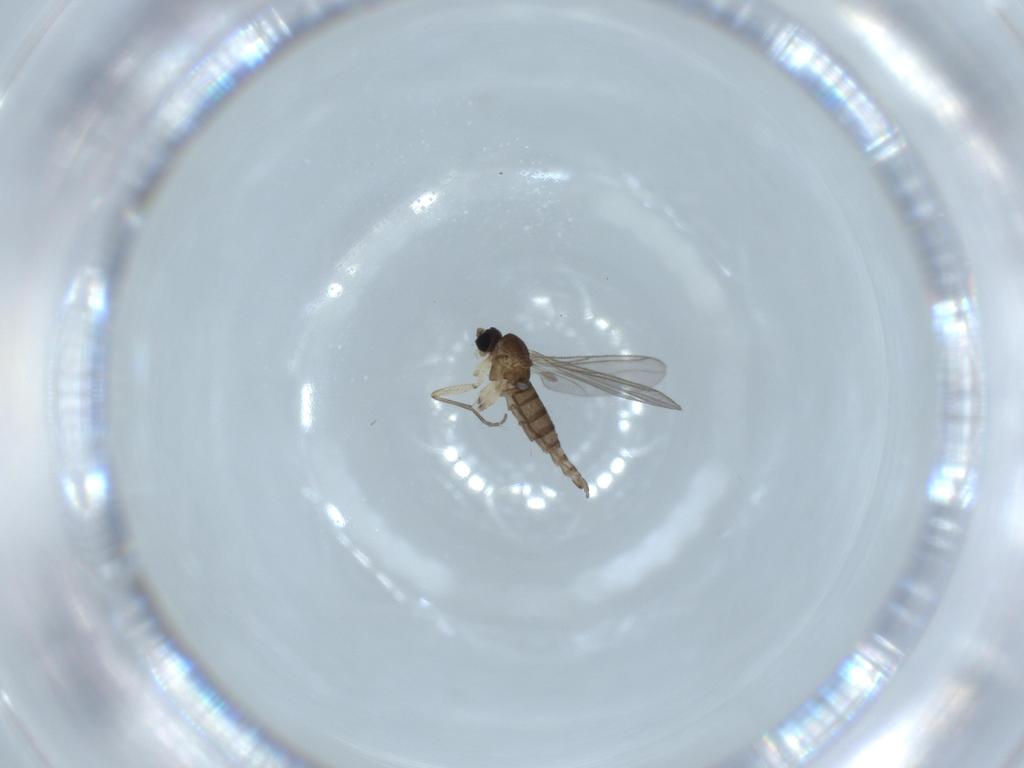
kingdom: Animalia
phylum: Arthropoda
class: Insecta
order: Diptera
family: Sciaridae
